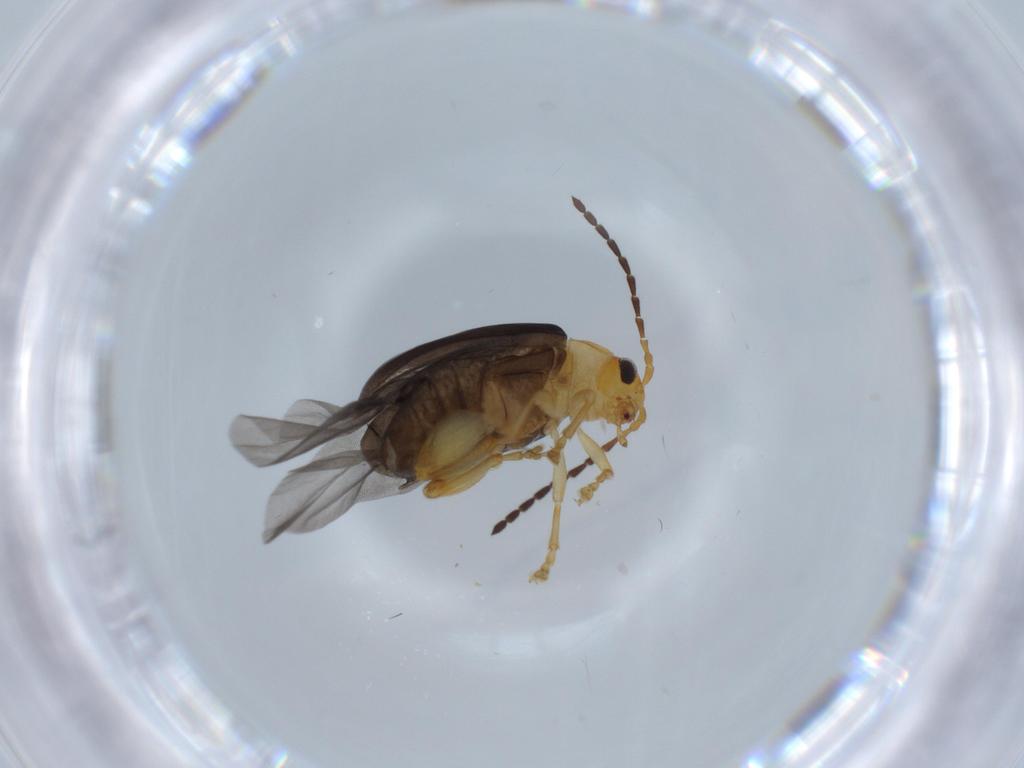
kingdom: Animalia
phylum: Arthropoda
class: Insecta
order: Coleoptera
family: Chrysomelidae
